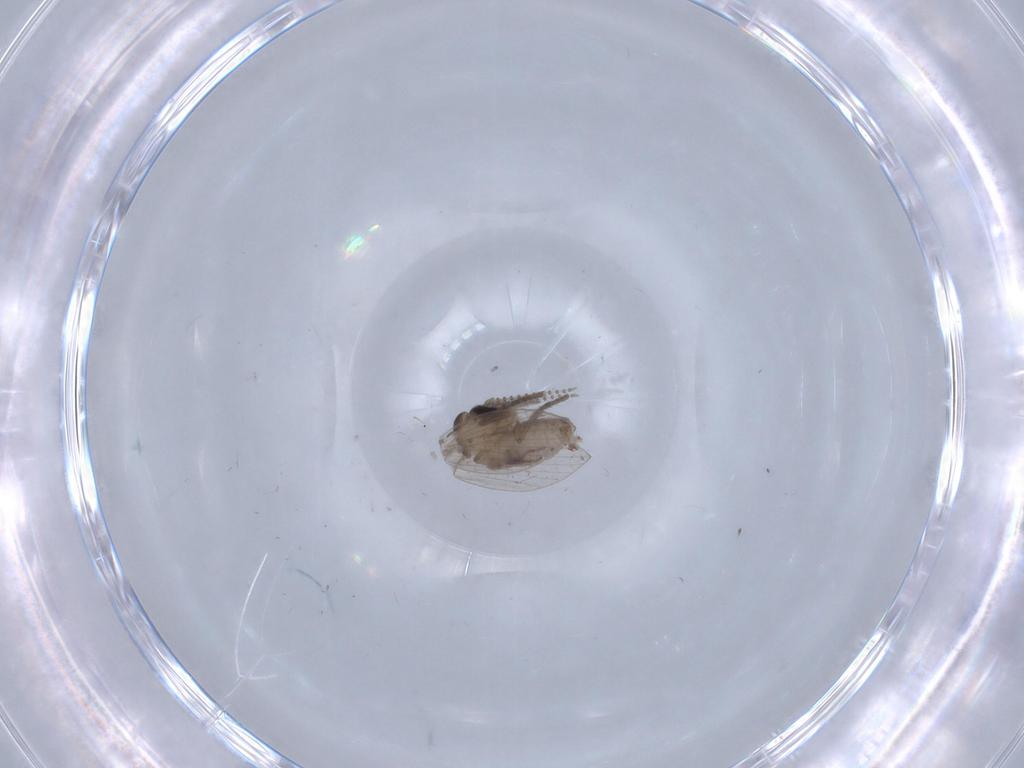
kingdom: Animalia
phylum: Arthropoda
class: Insecta
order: Diptera
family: Psychodidae
